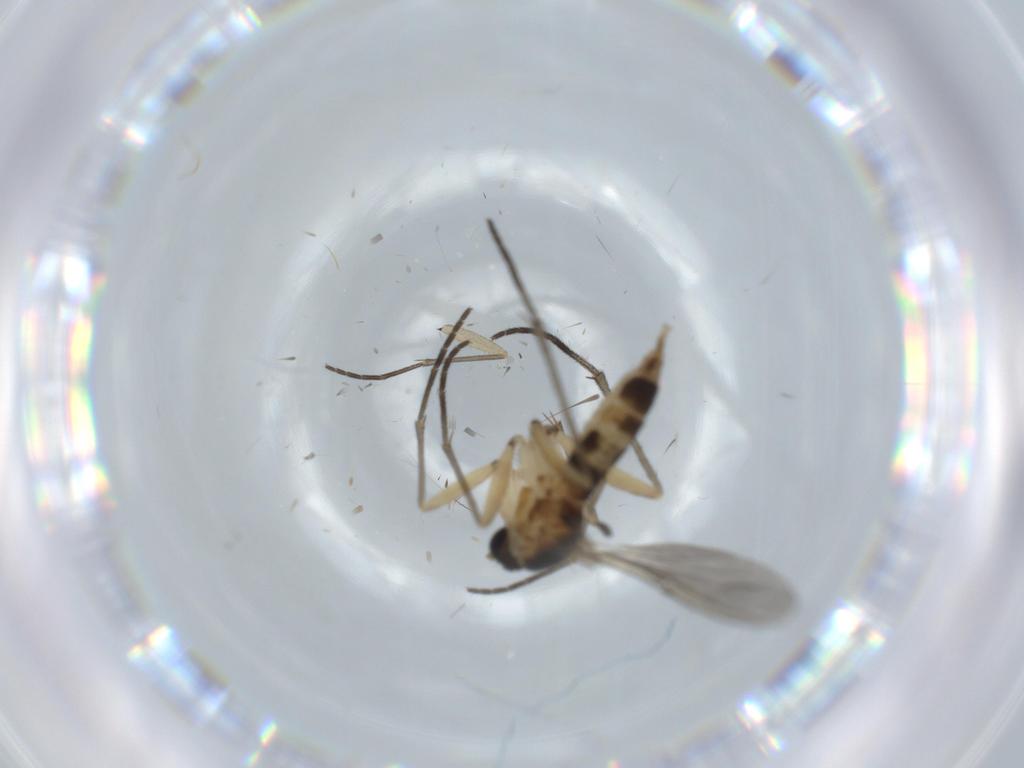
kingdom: Animalia
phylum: Arthropoda
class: Insecta
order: Diptera
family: Sciaridae
